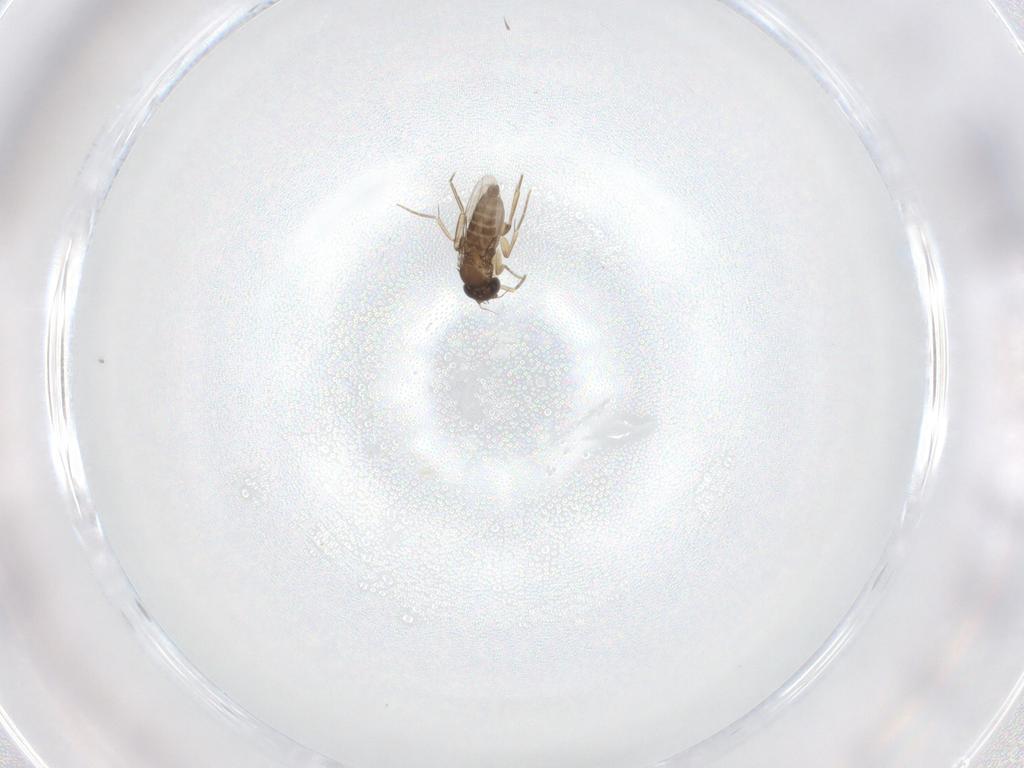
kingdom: Animalia
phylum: Arthropoda
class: Insecta
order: Diptera
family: Phoridae
